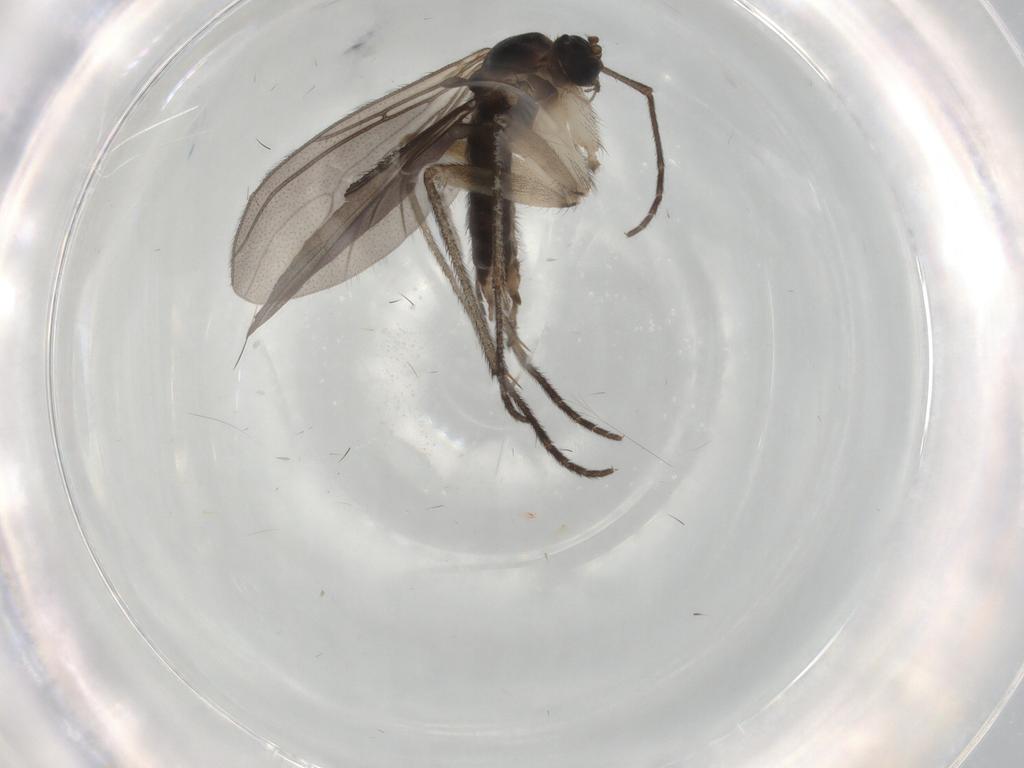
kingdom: Animalia
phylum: Arthropoda
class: Insecta
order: Diptera
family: Sciaridae
